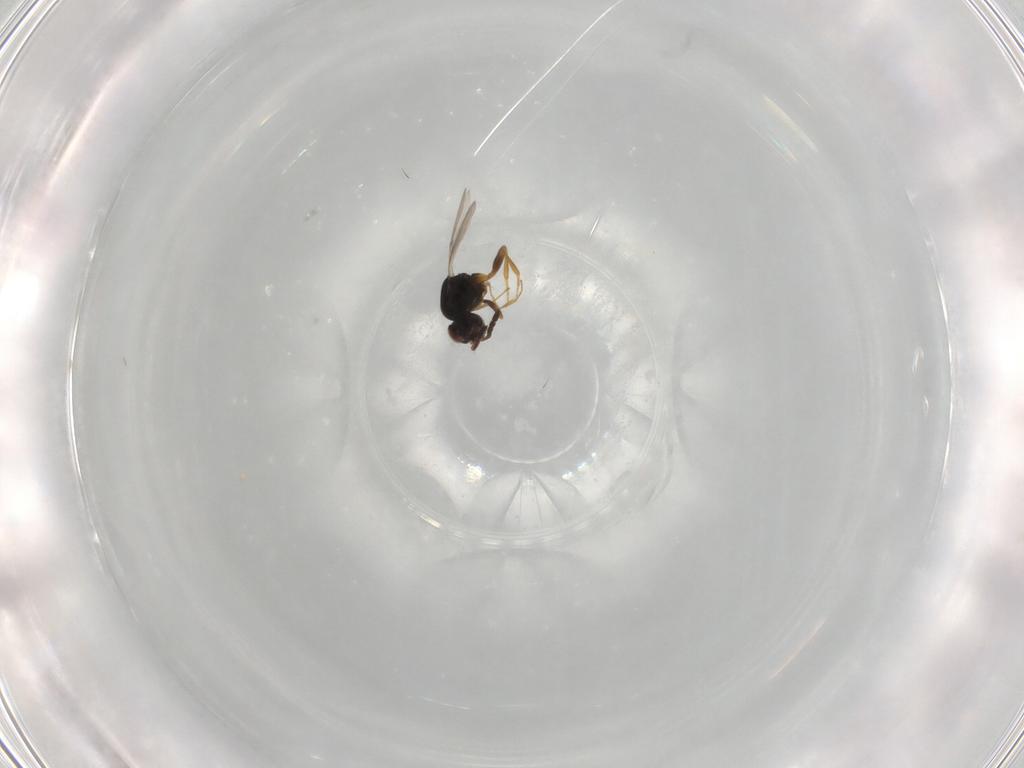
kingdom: Animalia
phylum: Arthropoda
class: Insecta
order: Hymenoptera
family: Ceraphronidae
